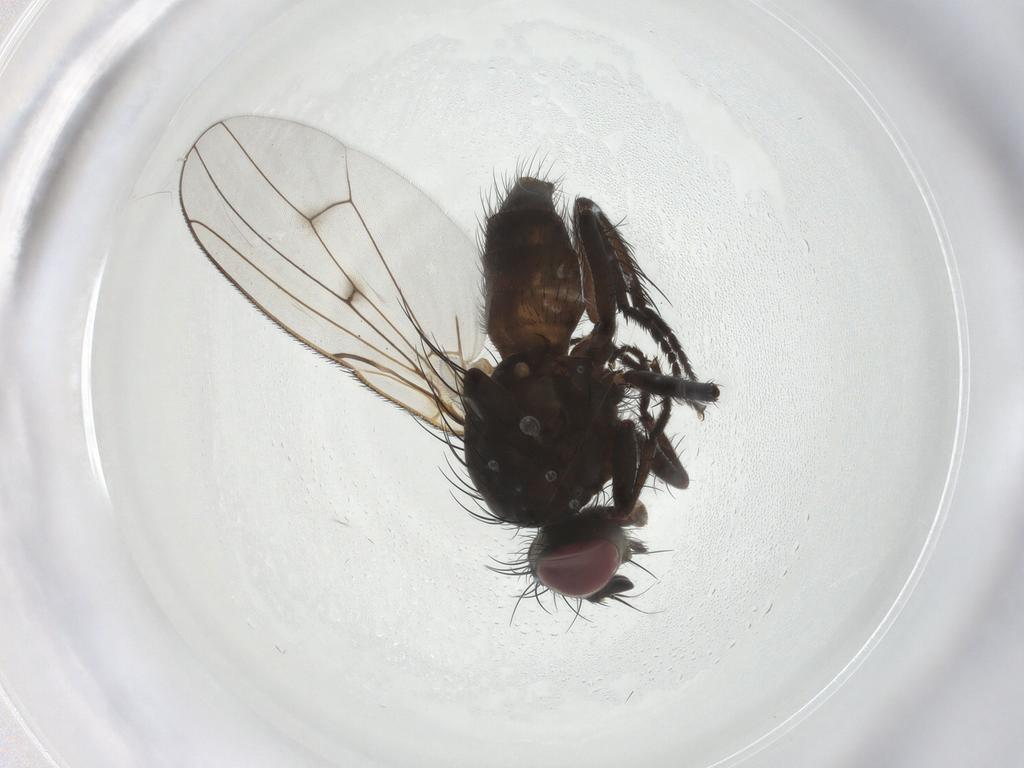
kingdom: Animalia
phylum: Arthropoda
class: Insecta
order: Diptera
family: Muscidae
